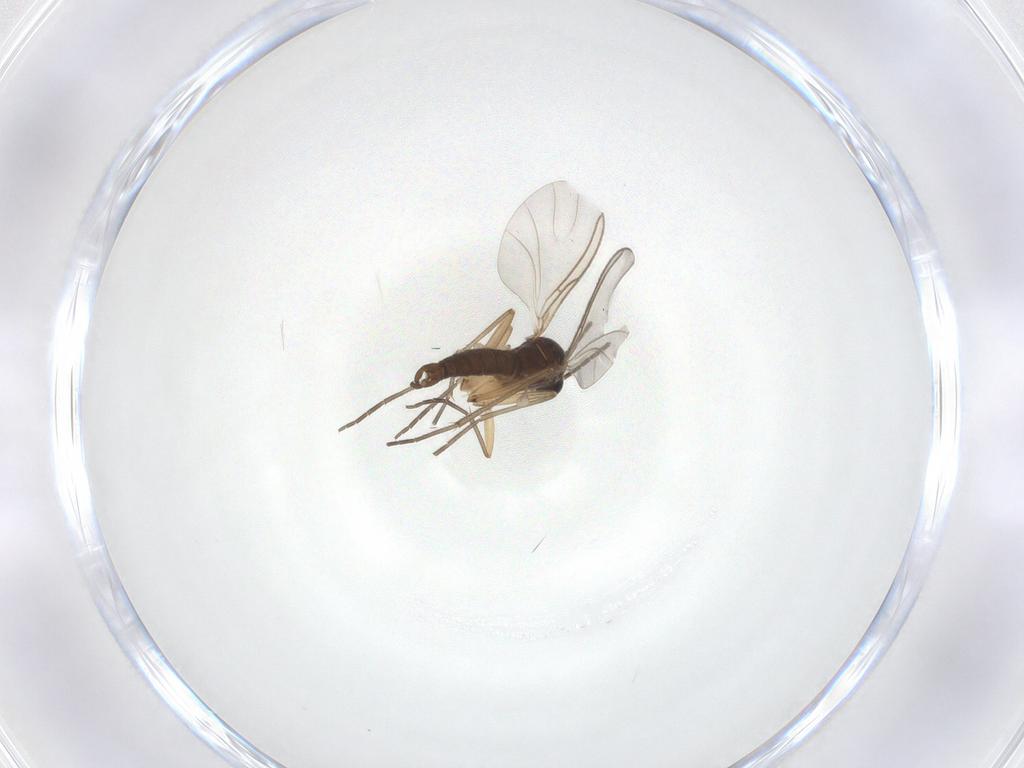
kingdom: Animalia
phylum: Arthropoda
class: Insecta
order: Diptera
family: Sciaridae
